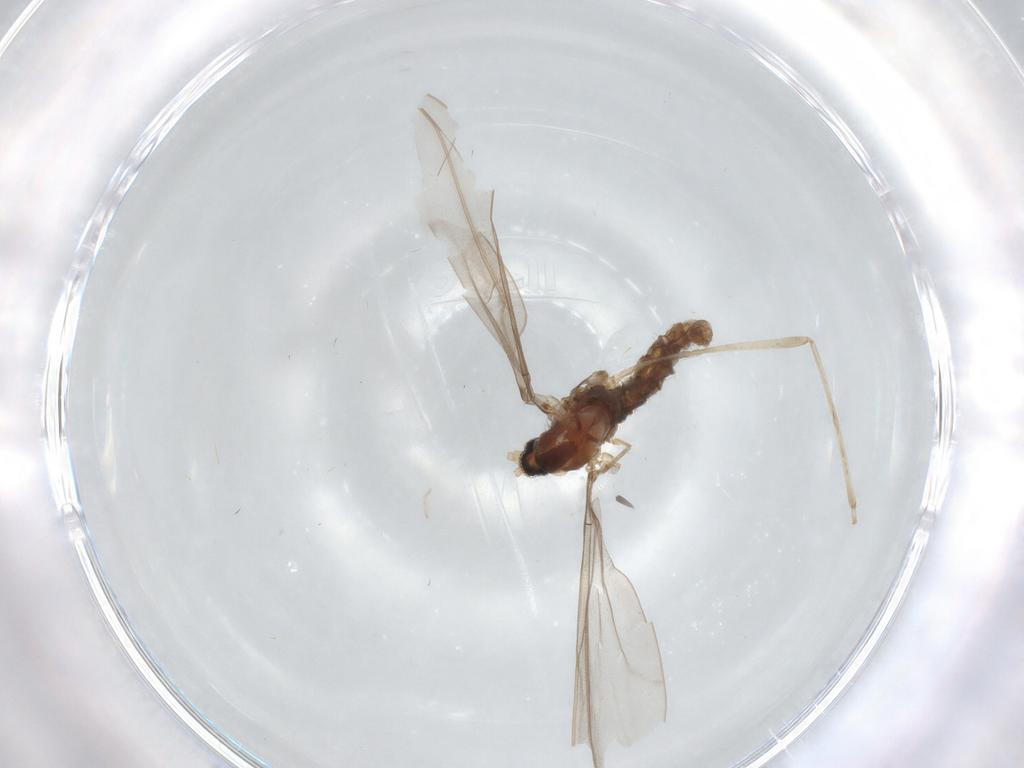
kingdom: Animalia
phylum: Arthropoda
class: Insecta
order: Diptera
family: Cecidomyiidae
